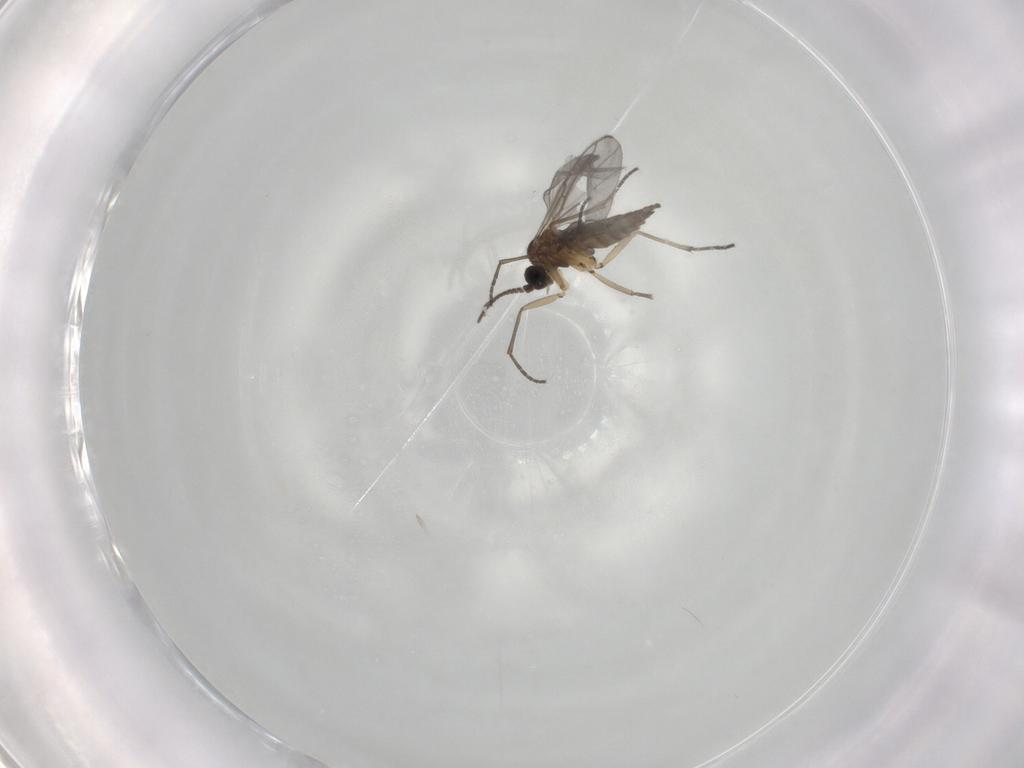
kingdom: Animalia
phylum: Arthropoda
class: Insecta
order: Diptera
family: Sciaridae
